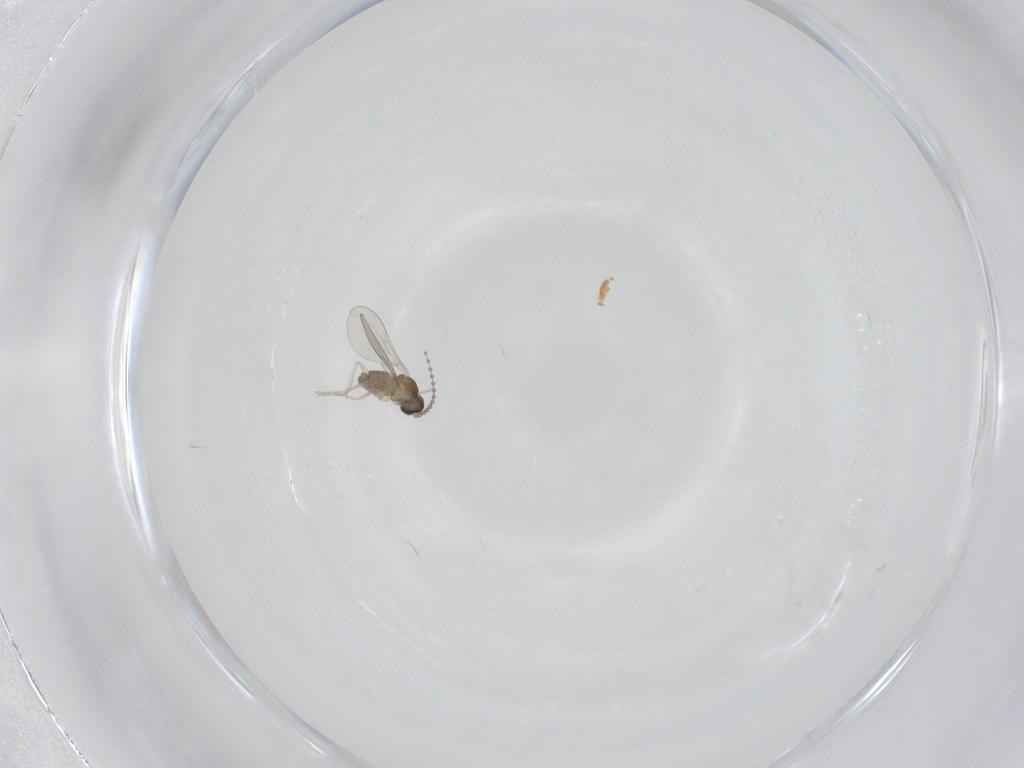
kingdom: Animalia
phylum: Arthropoda
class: Insecta
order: Diptera
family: Cecidomyiidae
